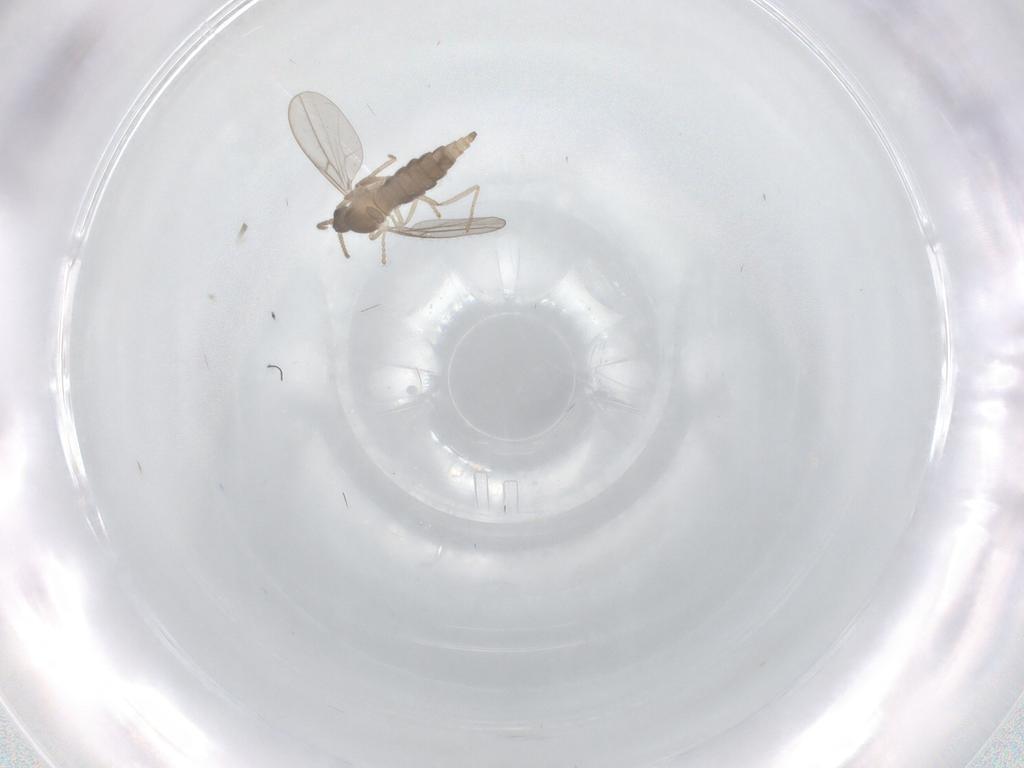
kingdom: Animalia
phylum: Arthropoda
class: Insecta
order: Diptera
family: Cecidomyiidae
